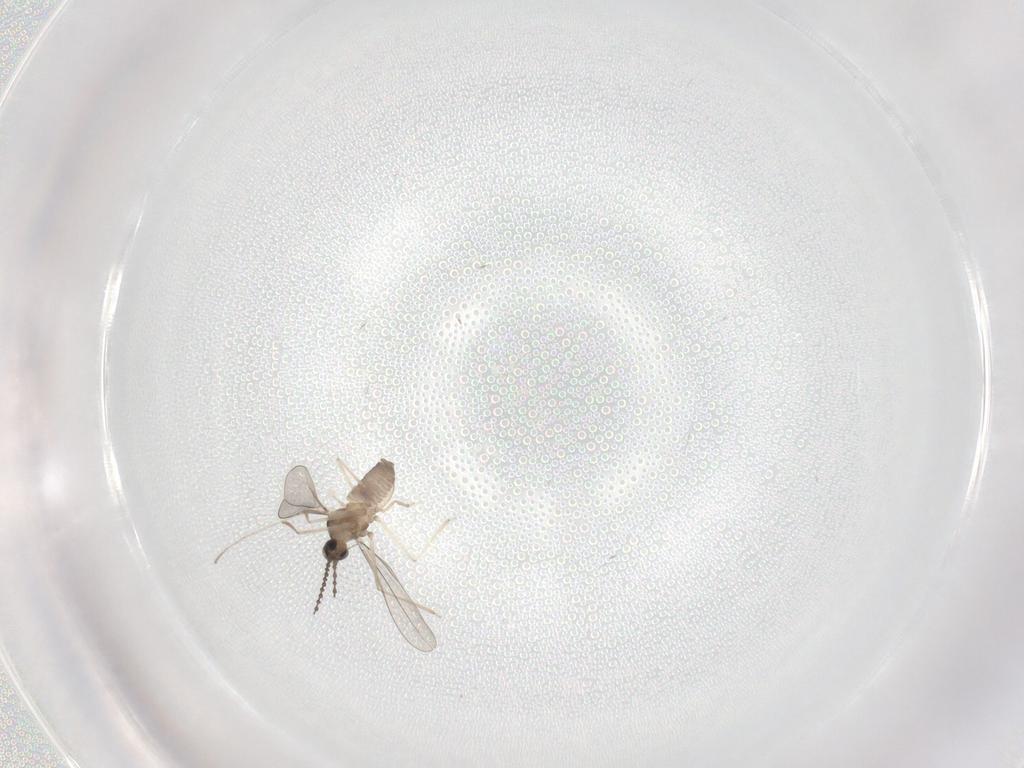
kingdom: Animalia
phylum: Arthropoda
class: Insecta
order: Diptera
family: Cecidomyiidae
